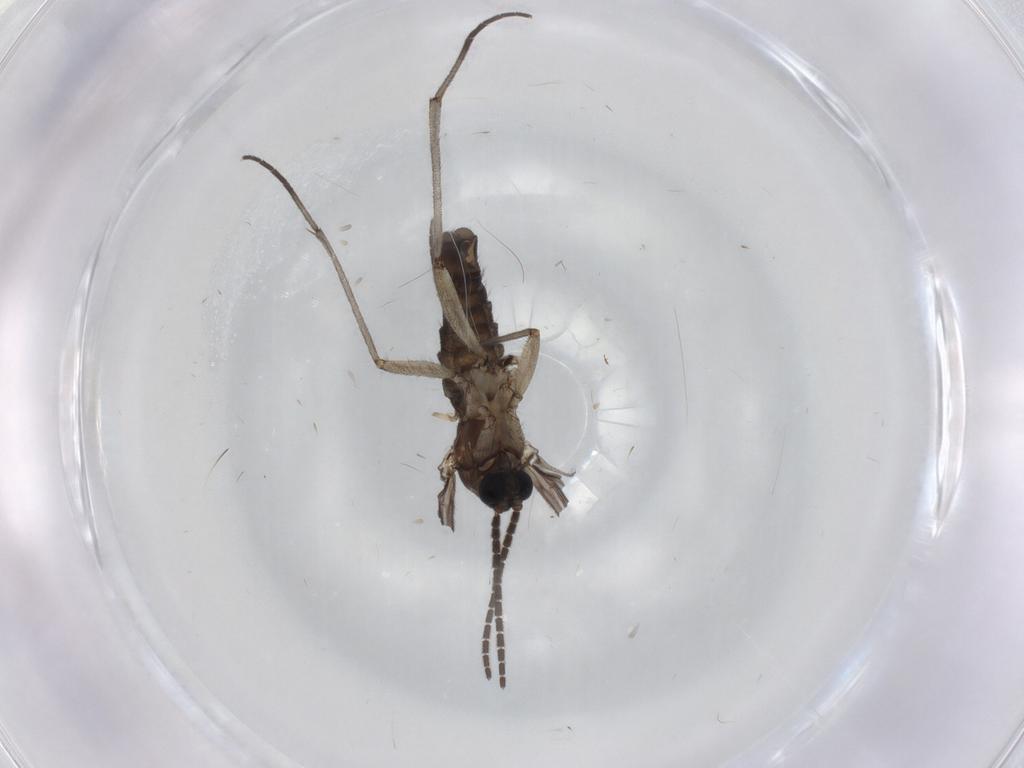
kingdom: Animalia
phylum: Arthropoda
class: Insecta
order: Diptera
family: Sciaridae
